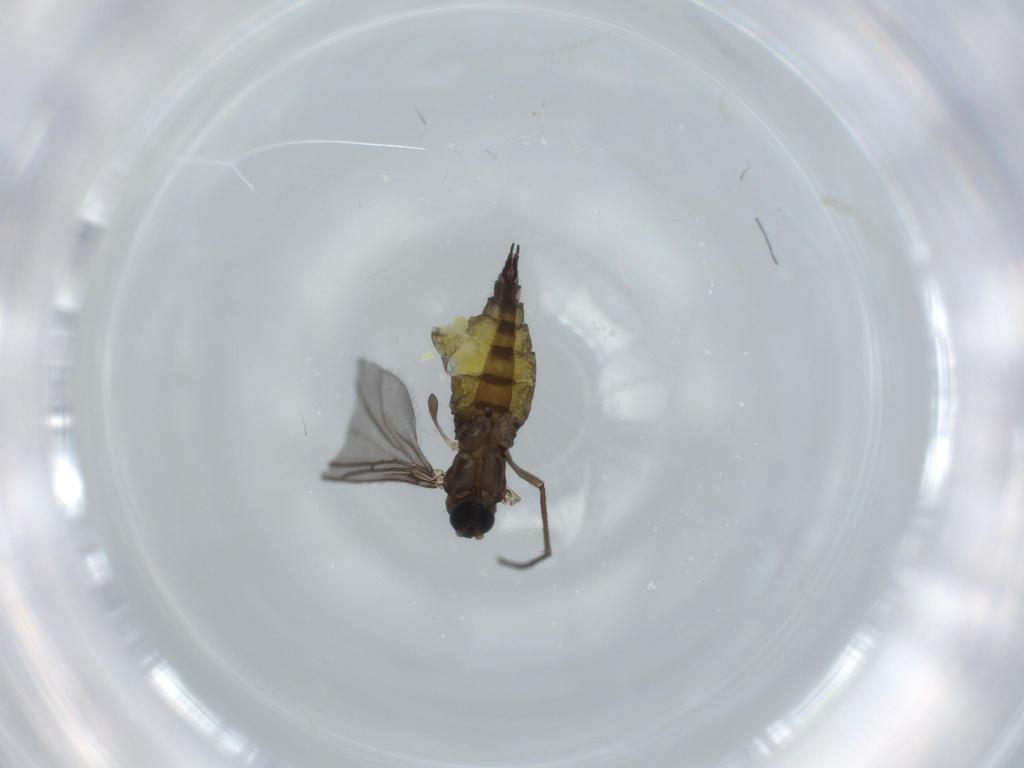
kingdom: Animalia
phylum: Arthropoda
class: Insecta
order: Diptera
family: Sciaridae
